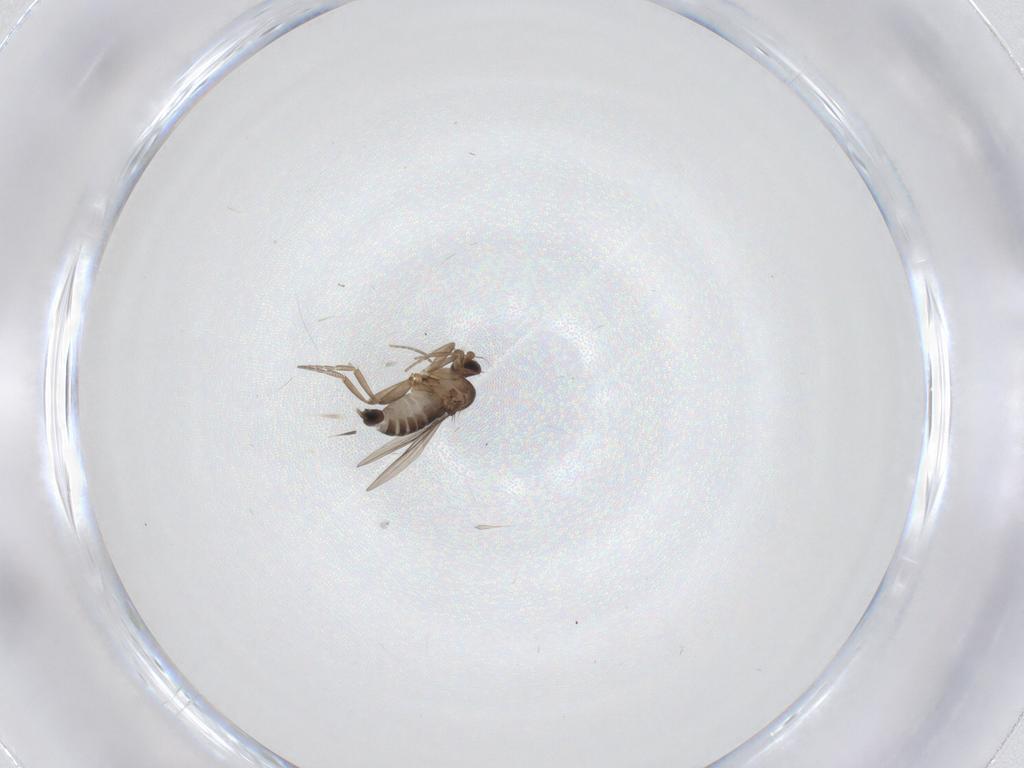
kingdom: Animalia
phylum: Arthropoda
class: Insecta
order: Diptera
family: Phoridae
